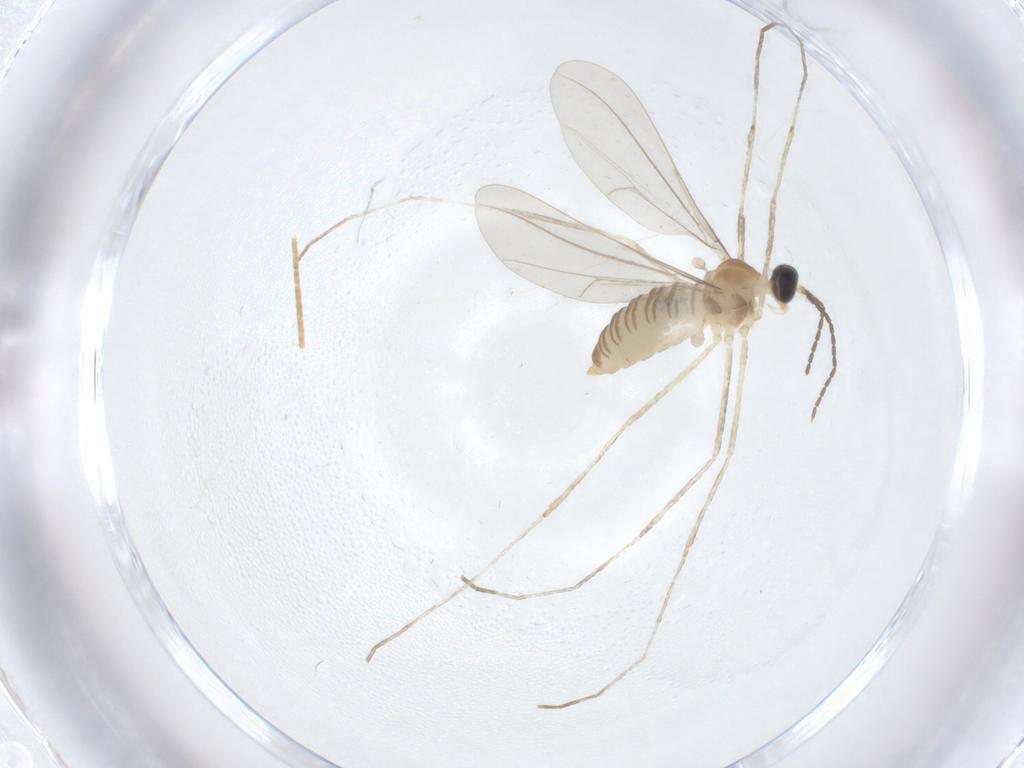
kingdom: Animalia
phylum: Arthropoda
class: Insecta
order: Diptera
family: Cecidomyiidae
